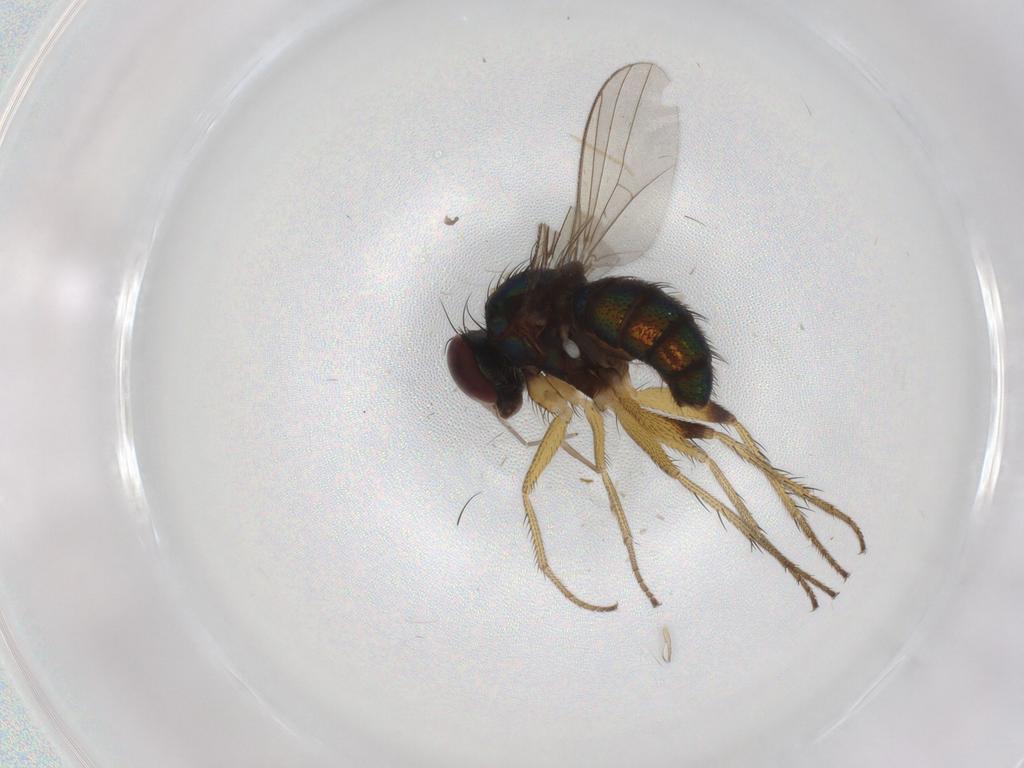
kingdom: Animalia
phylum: Arthropoda
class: Insecta
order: Diptera
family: Dolichopodidae
